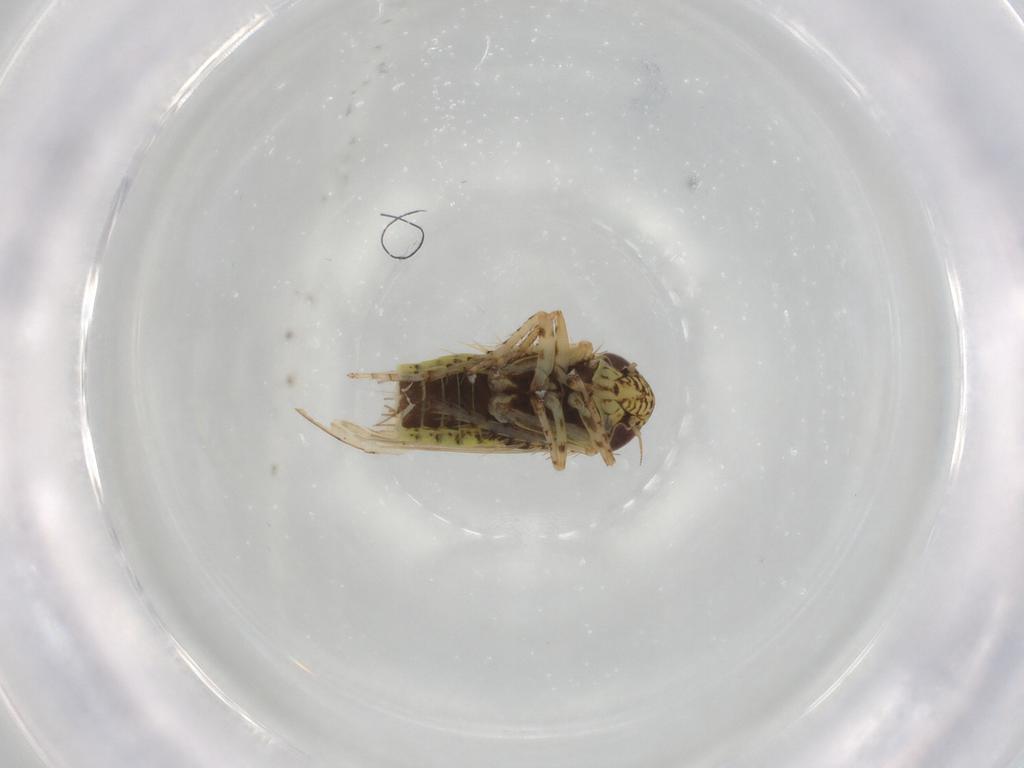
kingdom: Animalia
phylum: Arthropoda
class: Insecta
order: Hemiptera
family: Cicadellidae
